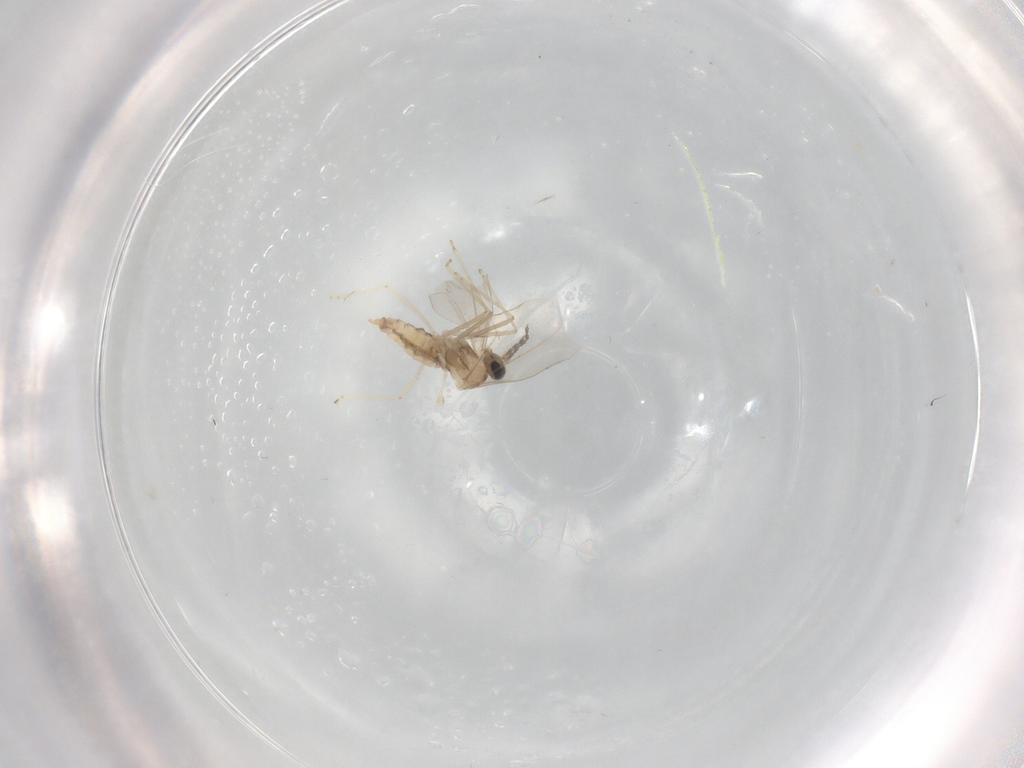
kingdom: Animalia
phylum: Arthropoda
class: Insecta
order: Diptera
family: Cecidomyiidae
